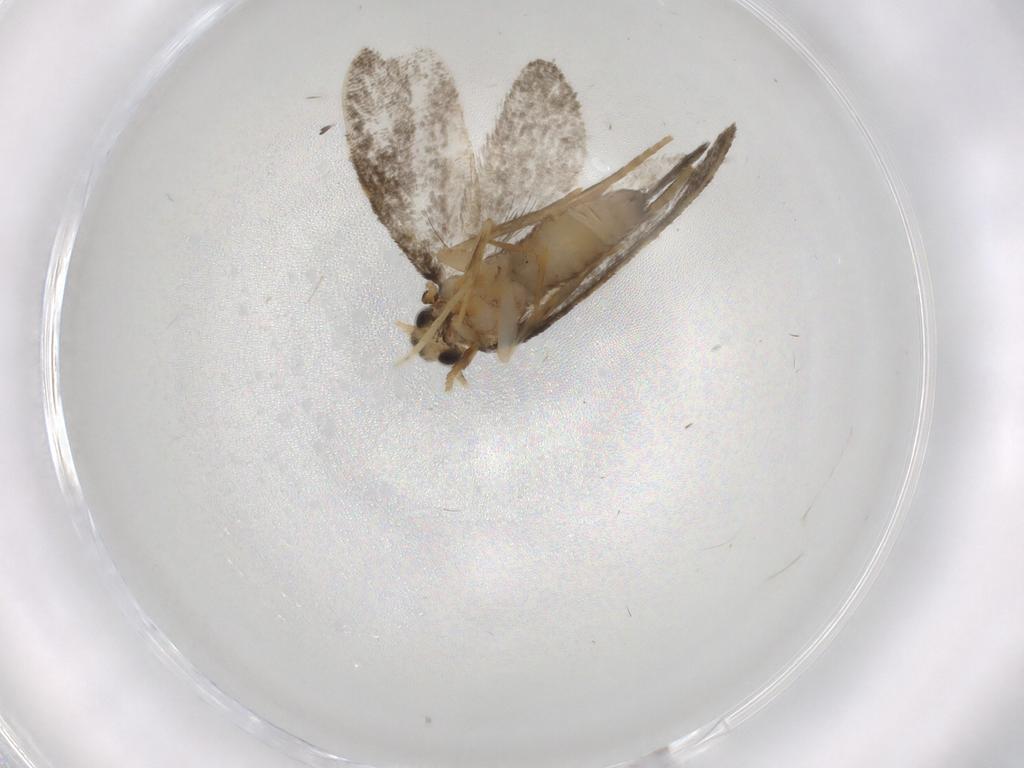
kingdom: Animalia
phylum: Arthropoda
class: Insecta
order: Lepidoptera
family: Psychidae
